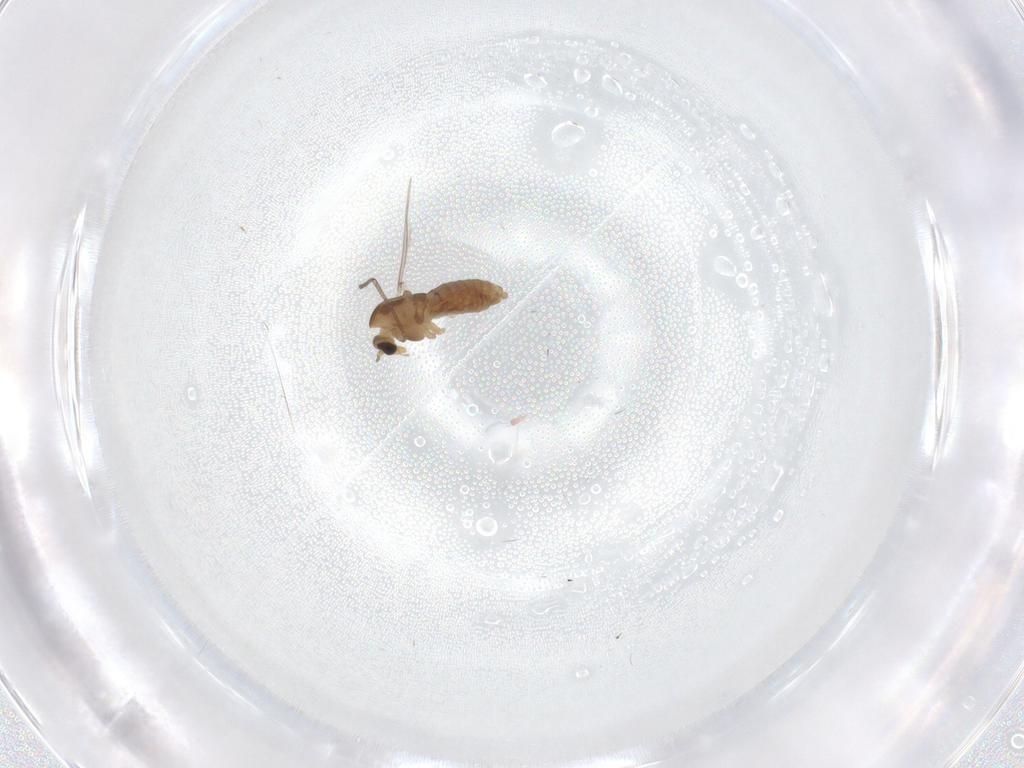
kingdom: Animalia
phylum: Arthropoda
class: Insecta
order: Diptera
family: Chironomidae
